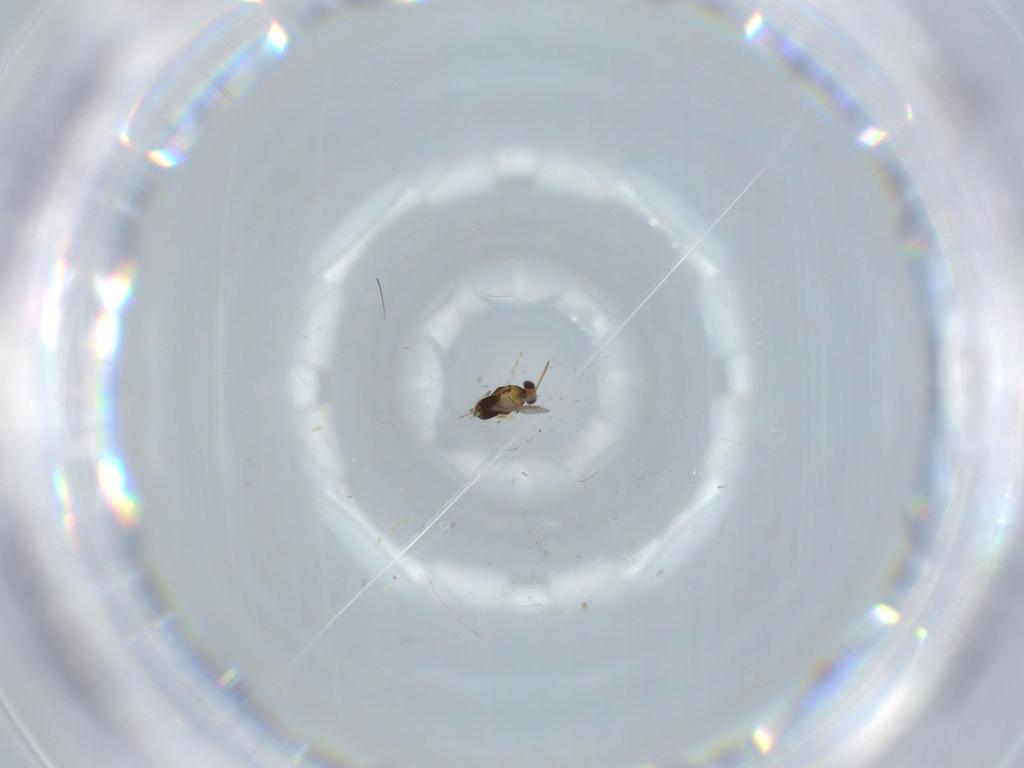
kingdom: Animalia
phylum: Arthropoda
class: Insecta
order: Hymenoptera
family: Aphelinidae
